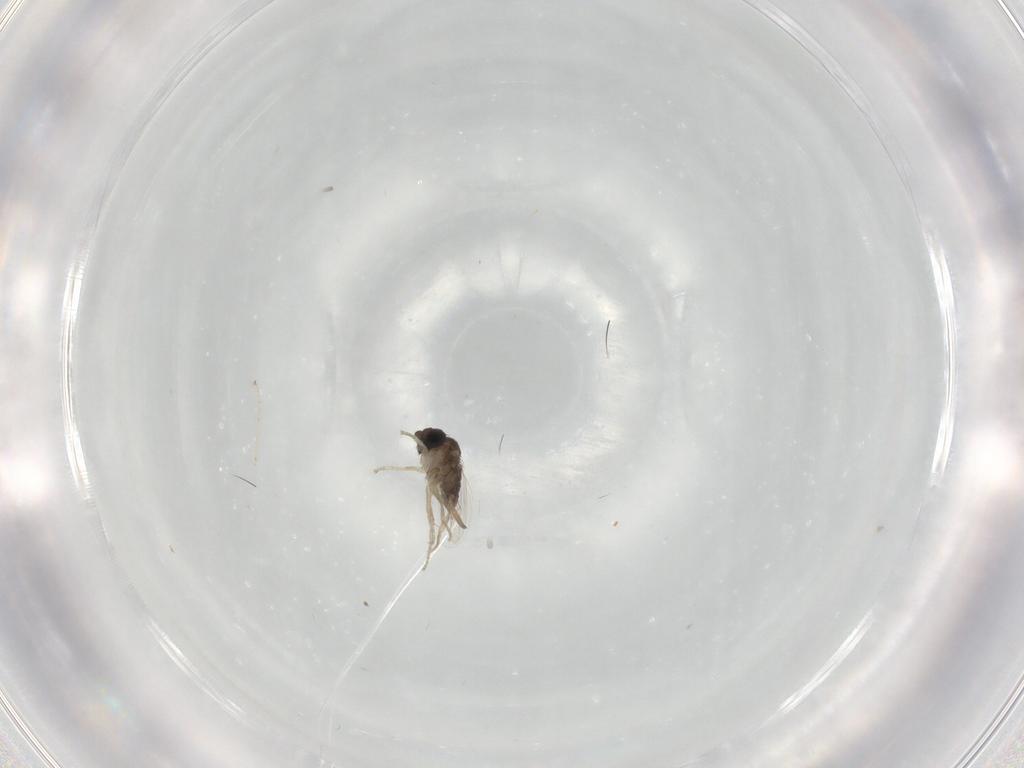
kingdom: Animalia
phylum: Arthropoda
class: Insecta
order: Diptera
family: Phoridae
